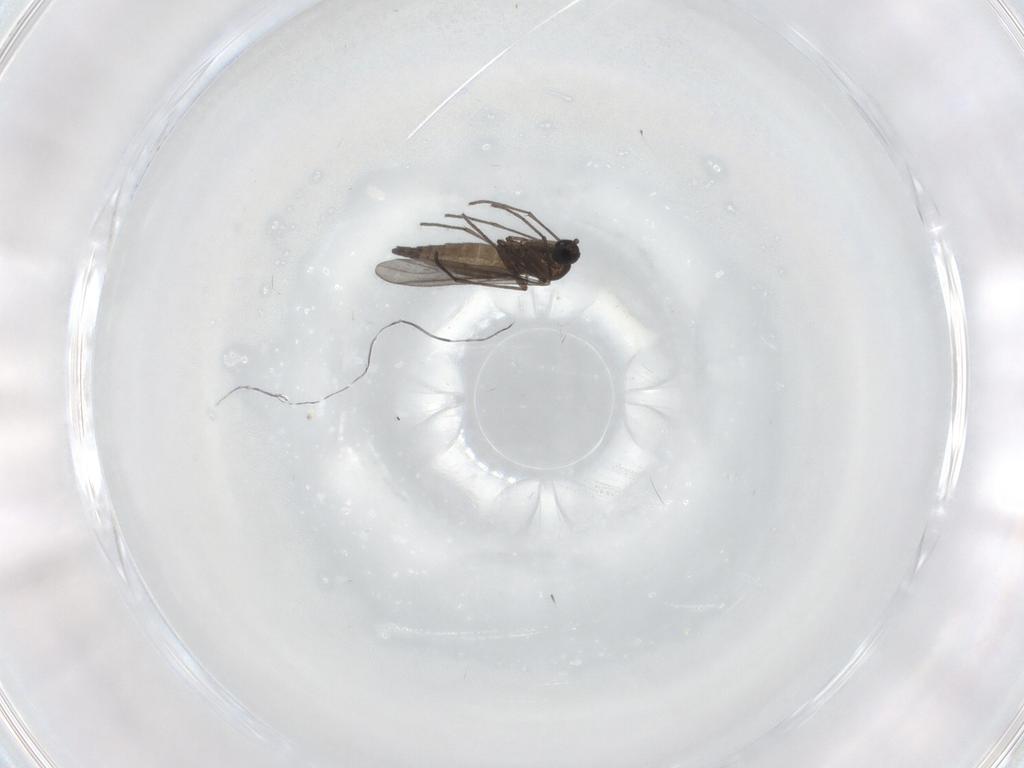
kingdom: Animalia
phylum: Arthropoda
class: Insecta
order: Diptera
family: Sciaridae
